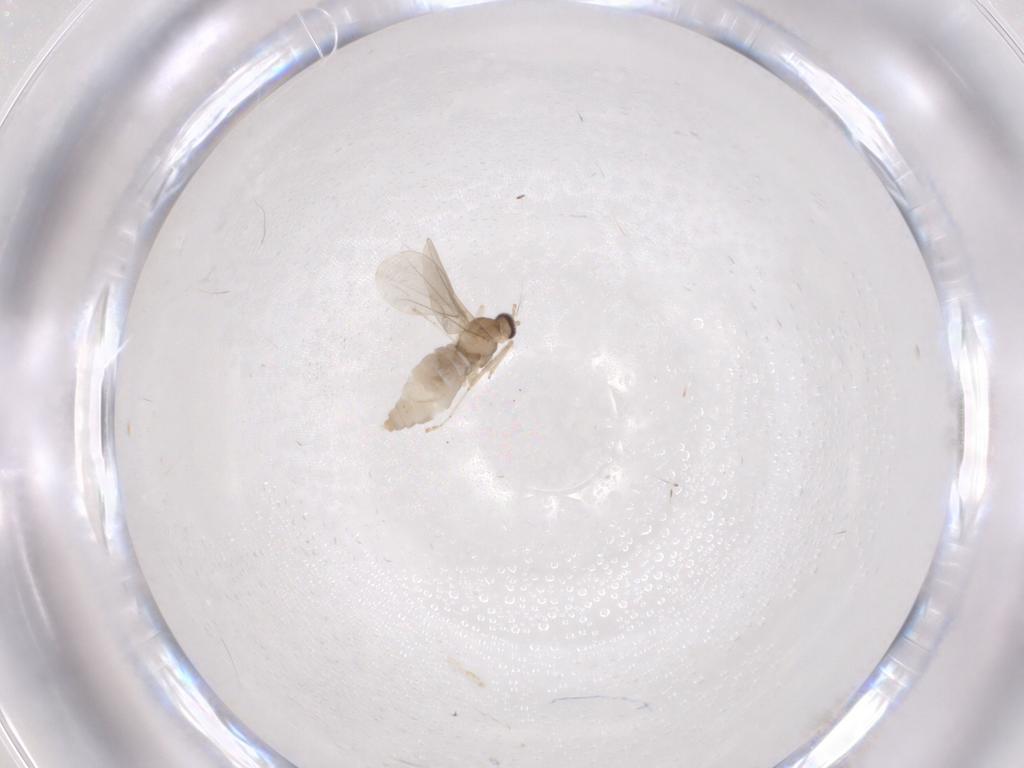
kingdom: Animalia
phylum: Arthropoda
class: Insecta
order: Diptera
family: Cecidomyiidae
